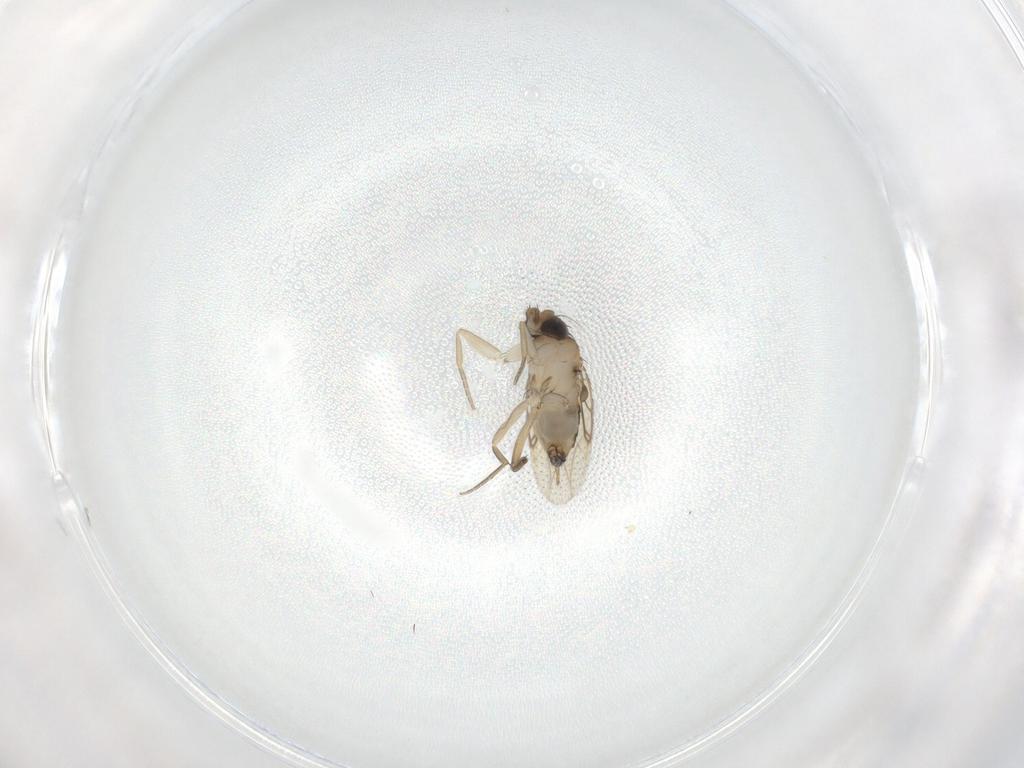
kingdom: Animalia
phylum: Arthropoda
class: Insecta
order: Diptera
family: Phoridae
